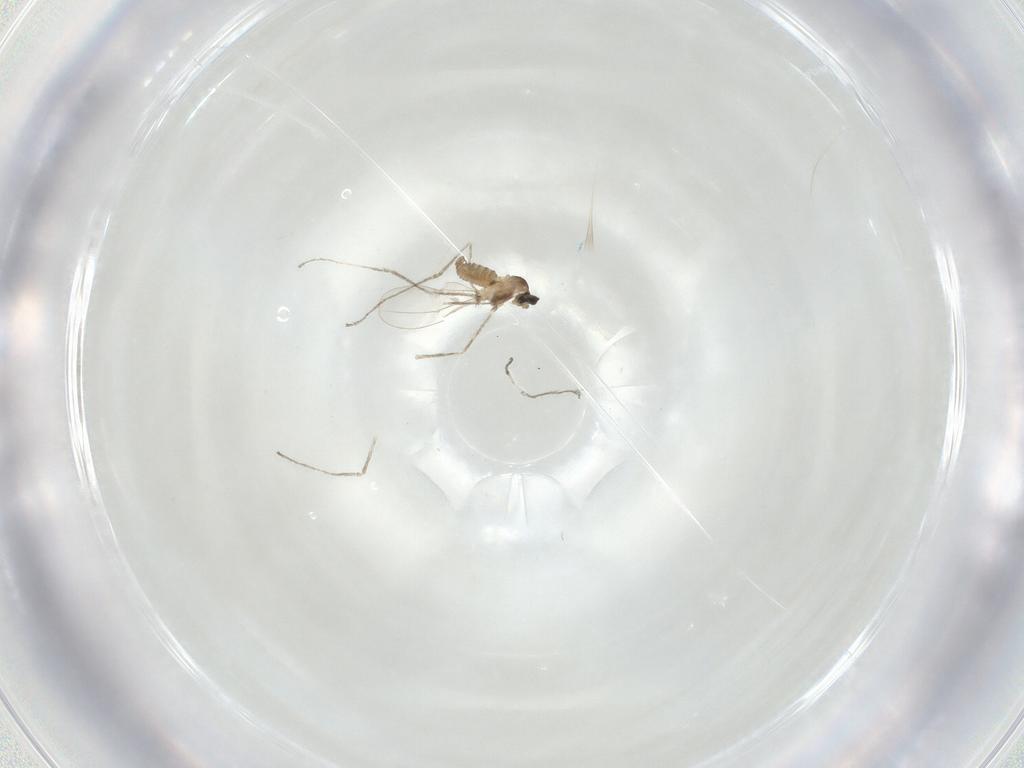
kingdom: Animalia
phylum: Arthropoda
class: Insecta
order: Diptera
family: Cecidomyiidae
